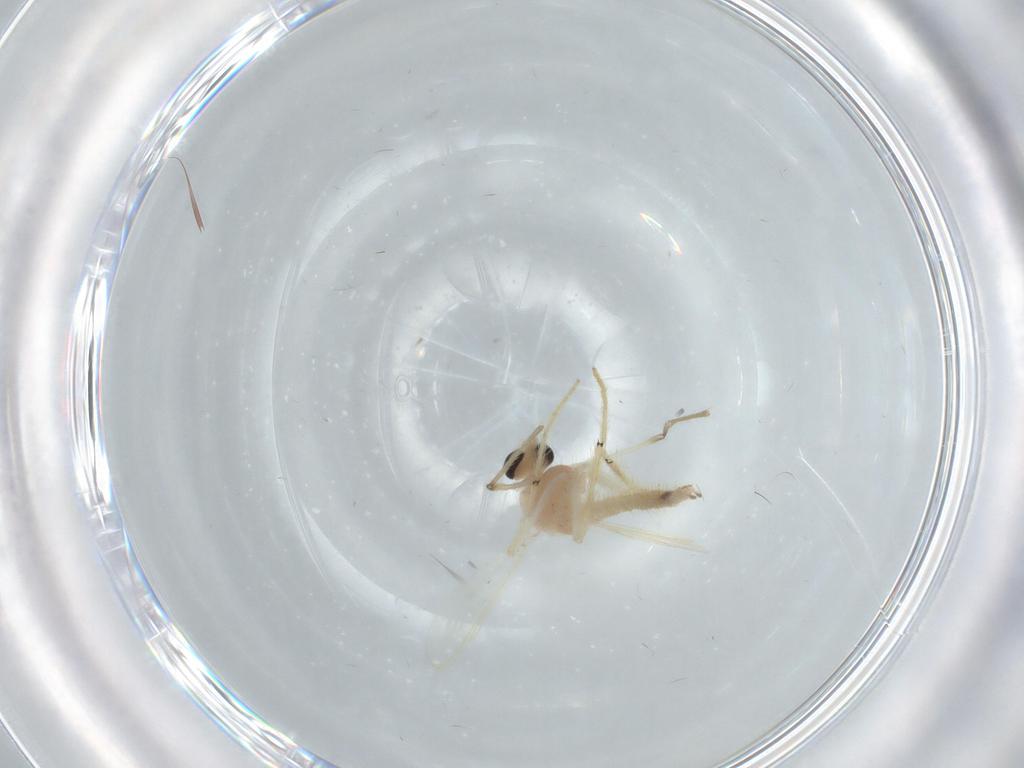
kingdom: Animalia
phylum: Arthropoda
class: Insecta
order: Diptera
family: Chironomidae
